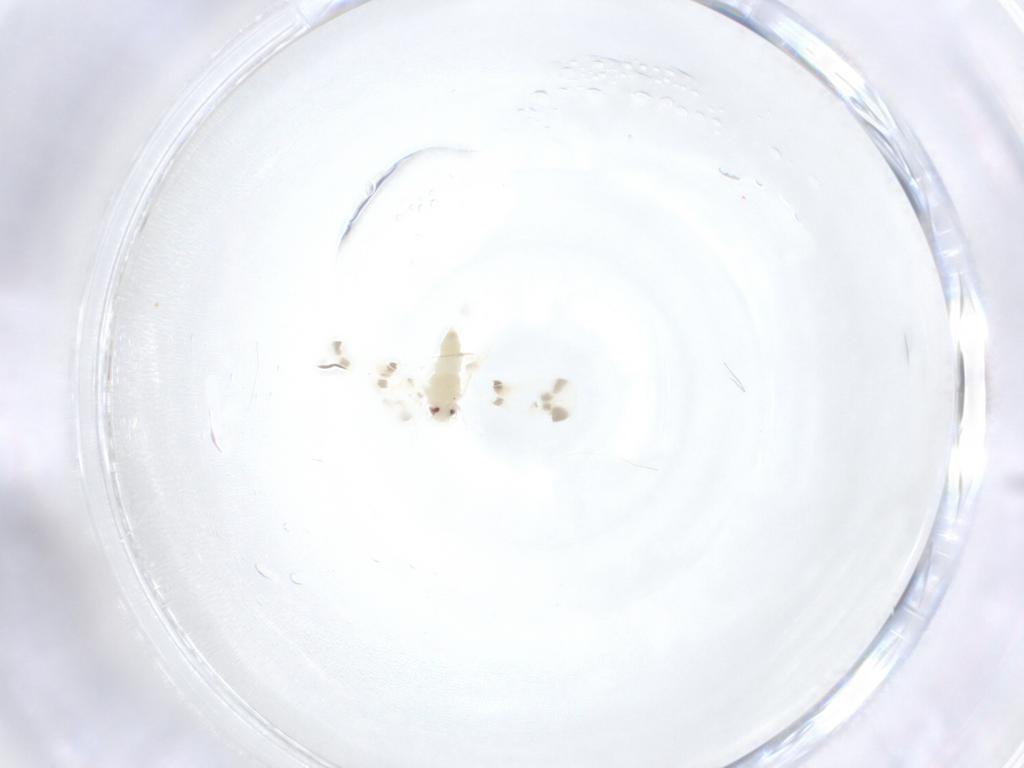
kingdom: Animalia
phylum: Arthropoda
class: Insecta
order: Hemiptera
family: Aleyrodidae
